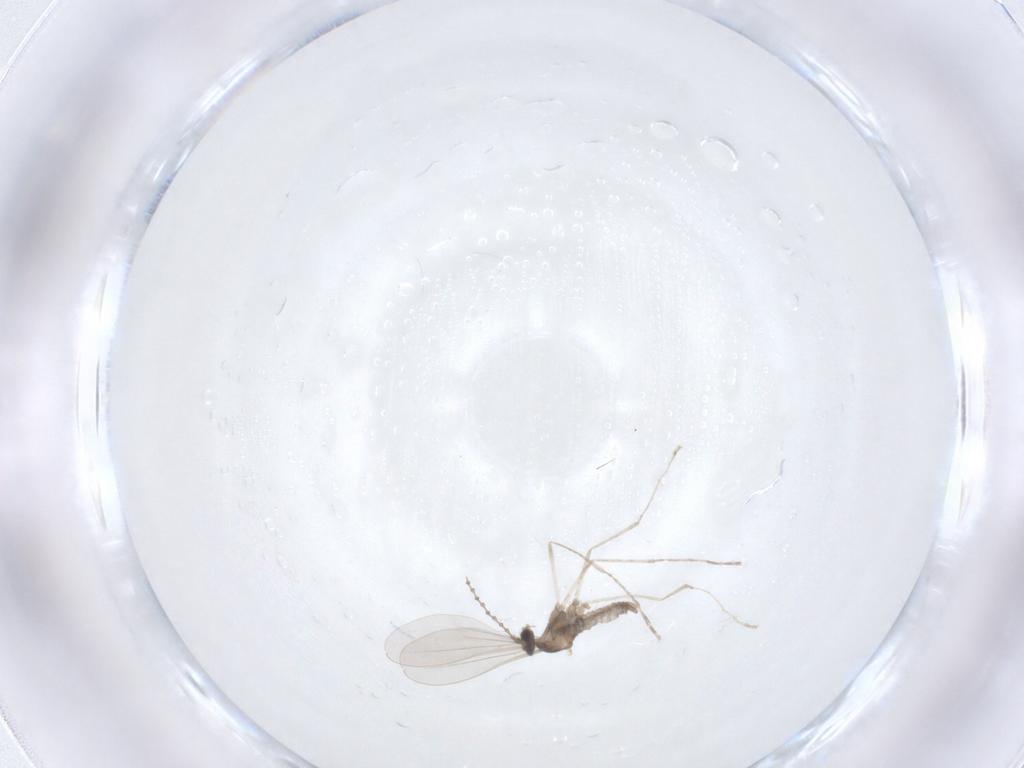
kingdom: Animalia
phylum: Arthropoda
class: Insecta
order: Diptera
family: Cecidomyiidae
